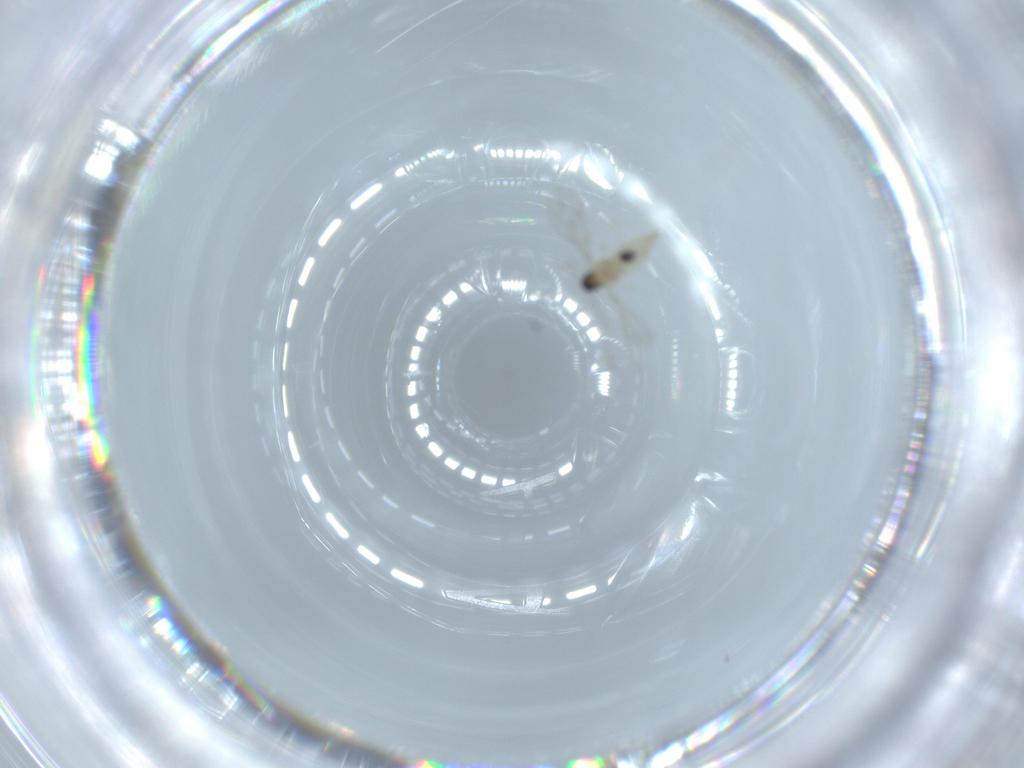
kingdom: Animalia
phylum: Arthropoda
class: Insecta
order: Diptera
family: Cecidomyiidae
